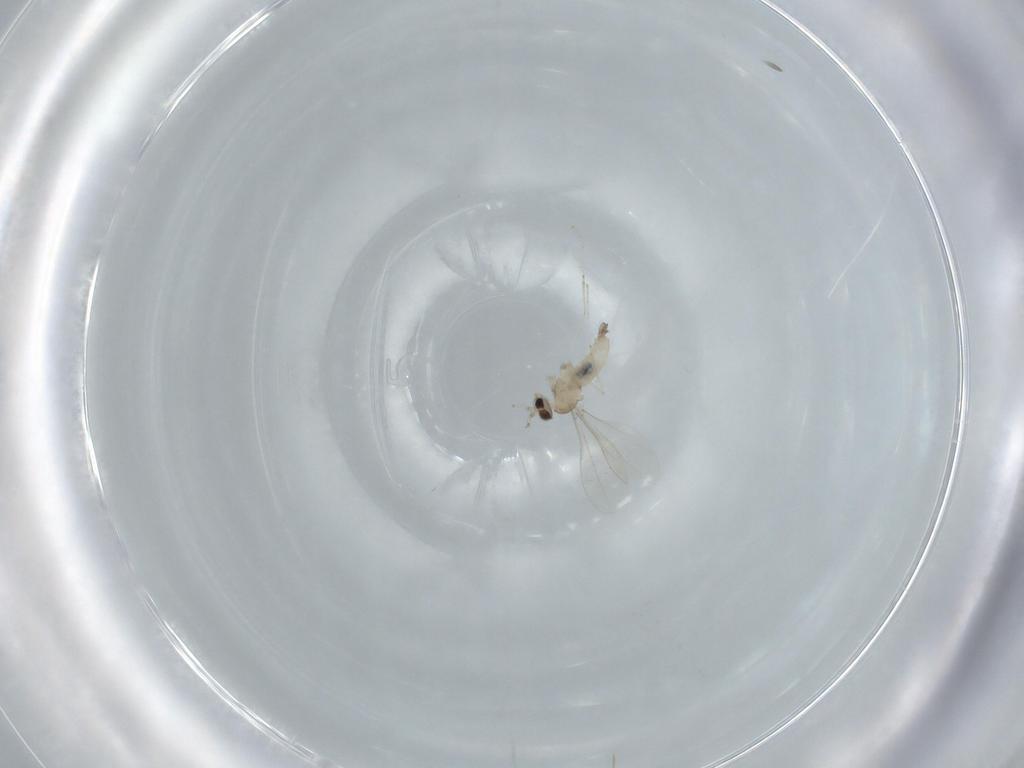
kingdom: Animalia
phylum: Arthropoda
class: Insecta
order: Diptera
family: Cecidomyiidae
